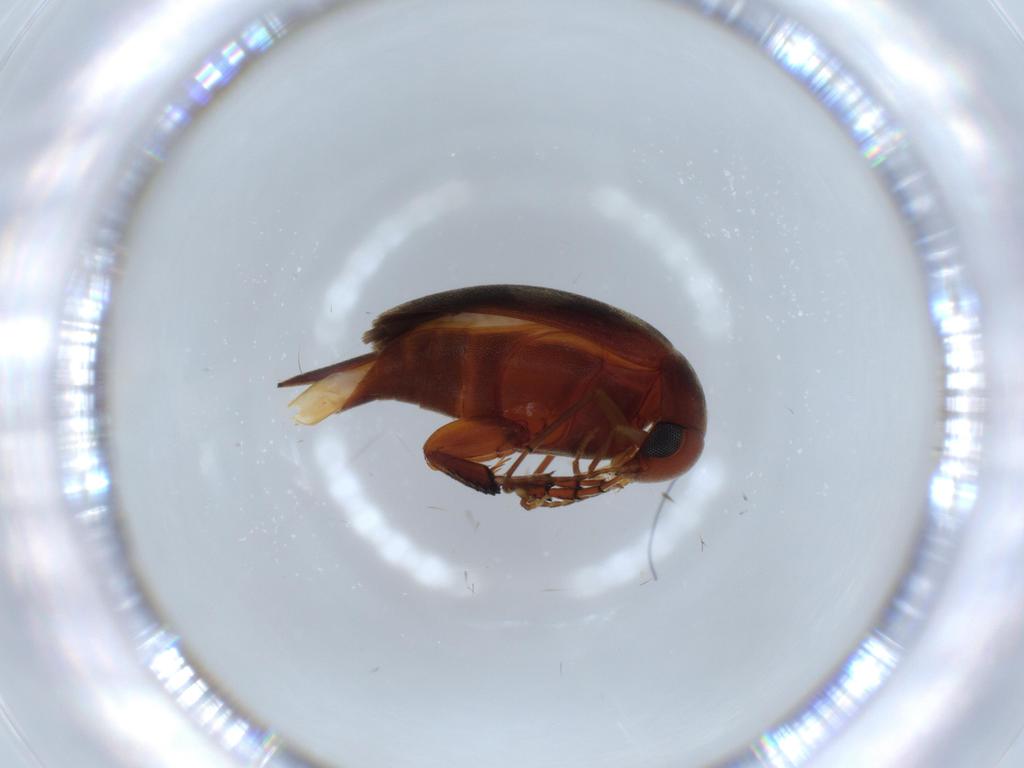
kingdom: Animalia
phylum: Arthropoda
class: Insecta
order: Coleoptera
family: Mordellidae
